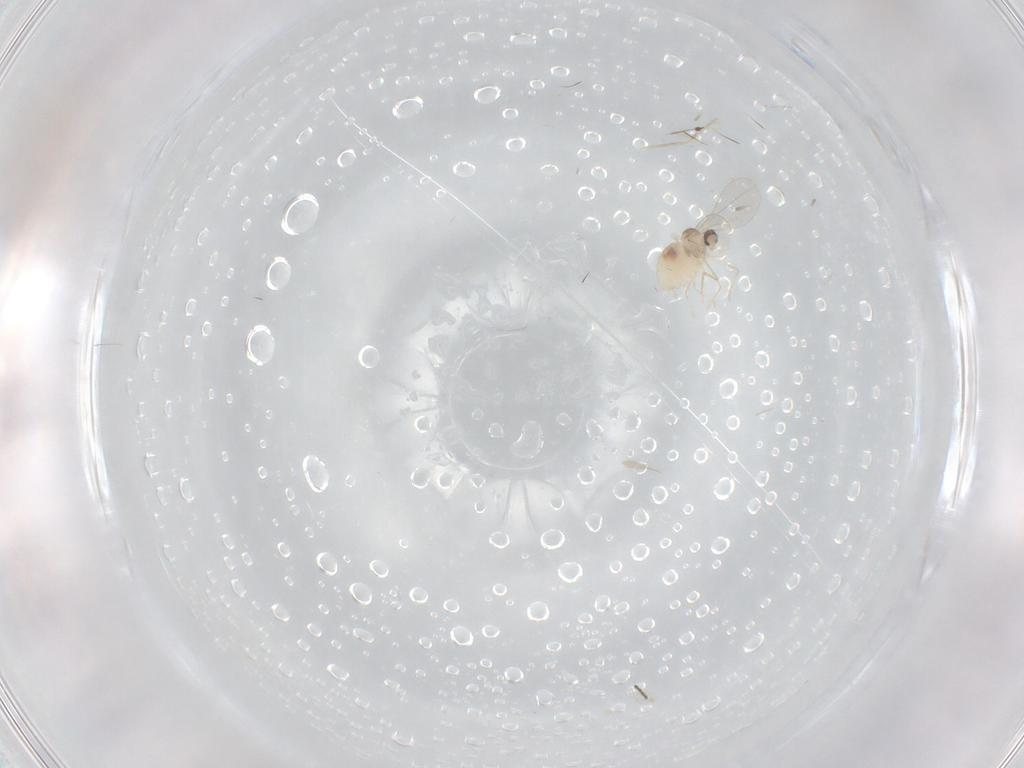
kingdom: Animalia
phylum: Arthropoda
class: Insecta
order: Diptera
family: Cecidomyiidae
